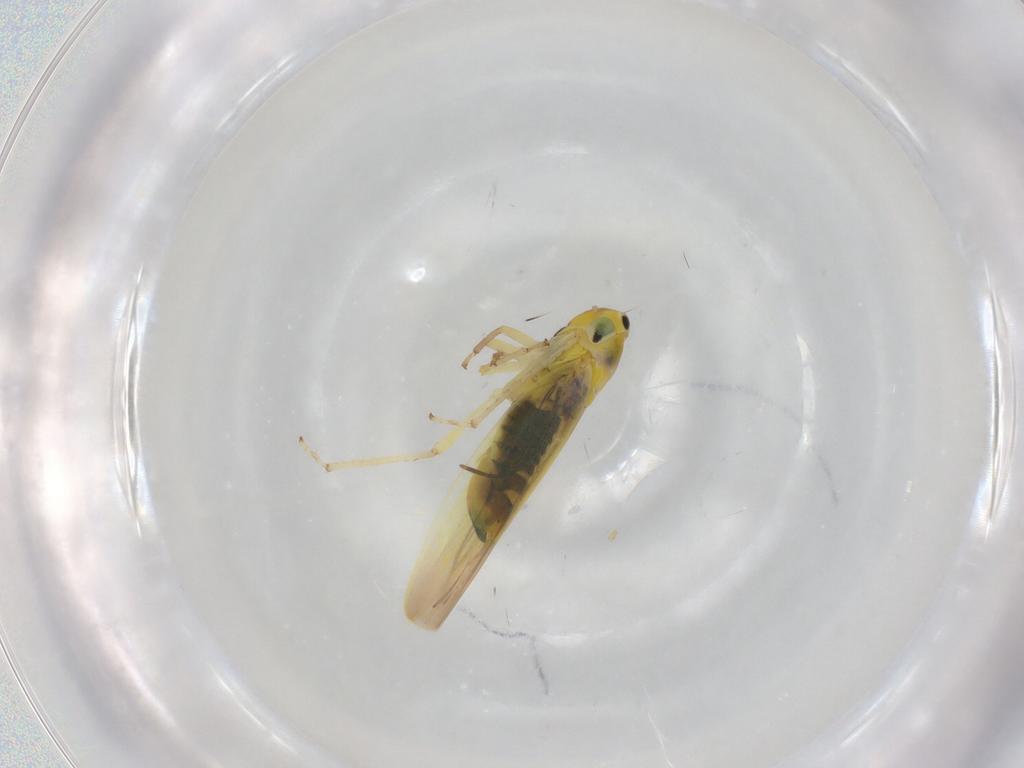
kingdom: Animalia
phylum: Arthropoda
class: Insecta
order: Hemiptera
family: Cicadellidae
